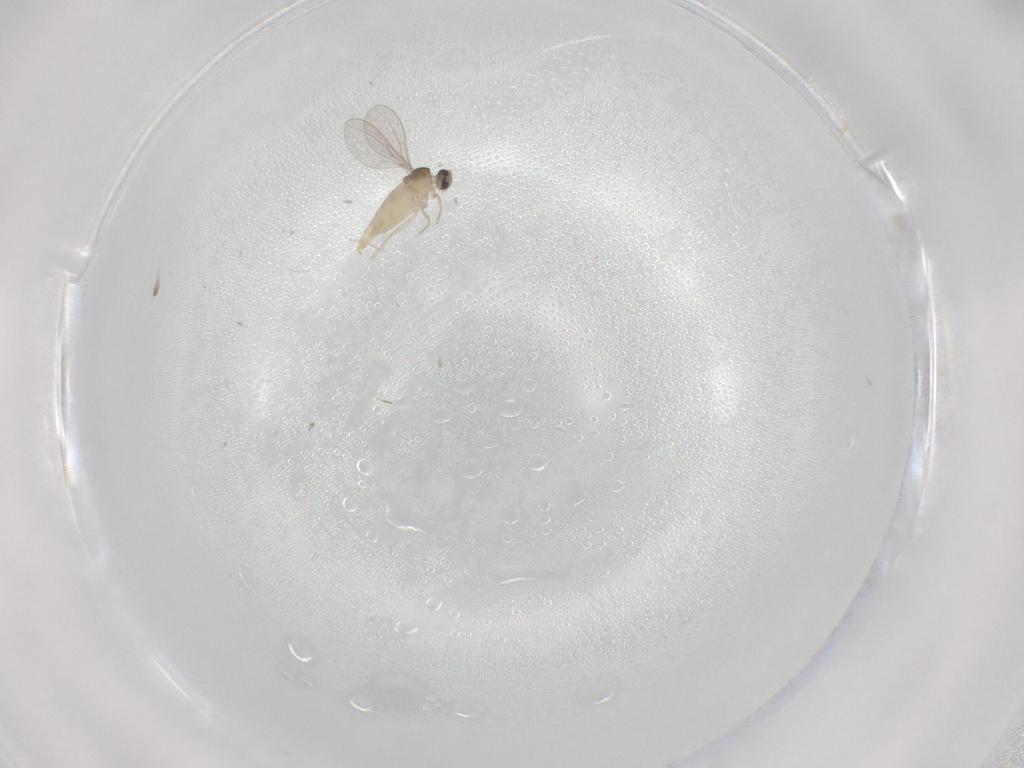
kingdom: Animalia
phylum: Arthropoda
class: Insecta
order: Diptera
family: Cecidomyiidae
